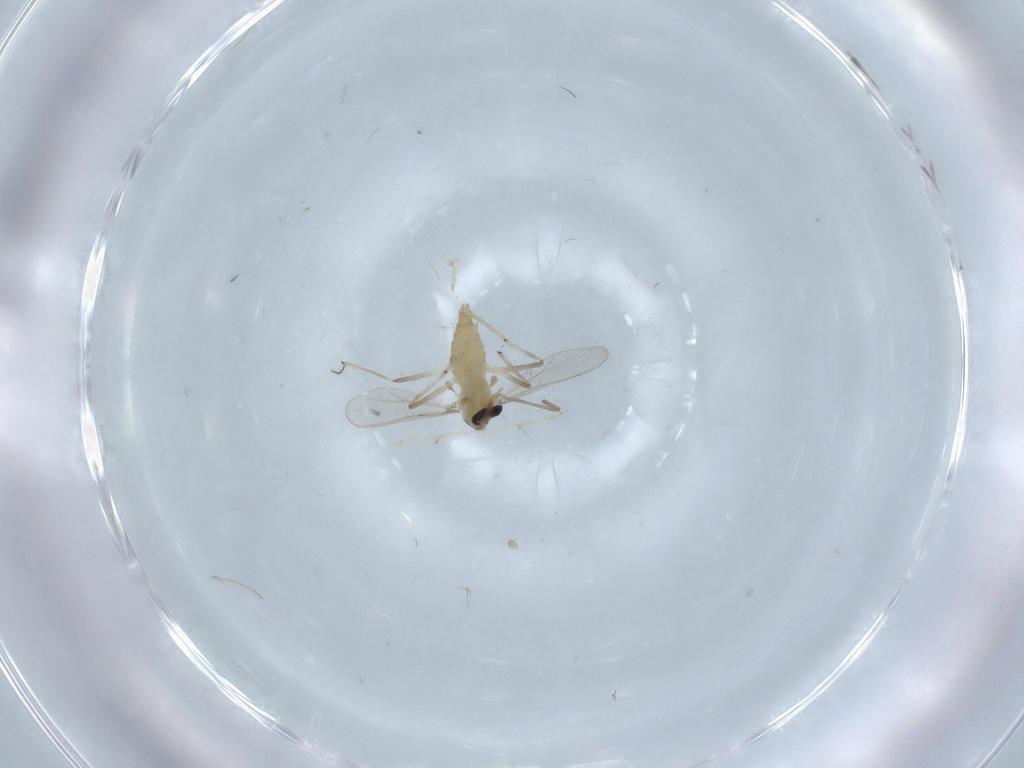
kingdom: Animalia
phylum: Arthropoda
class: Insecta
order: Diptera
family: Chironomidae
